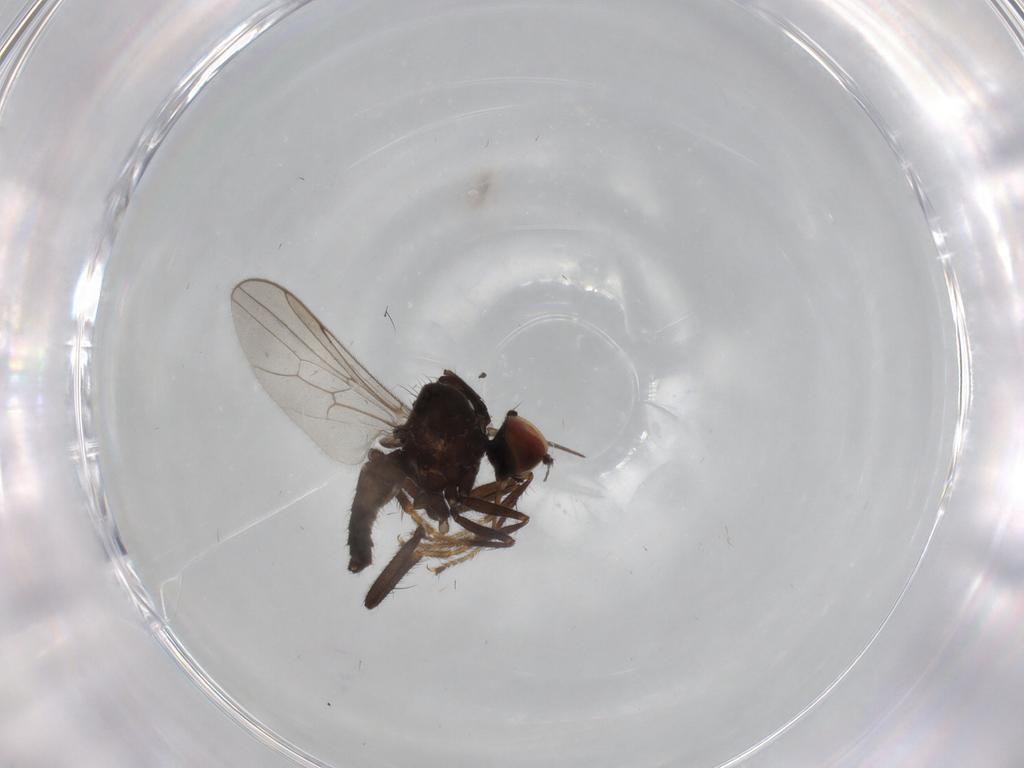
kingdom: Animalia
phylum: Arthropoda
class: Insecta
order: Diptera
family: Hybotidae
